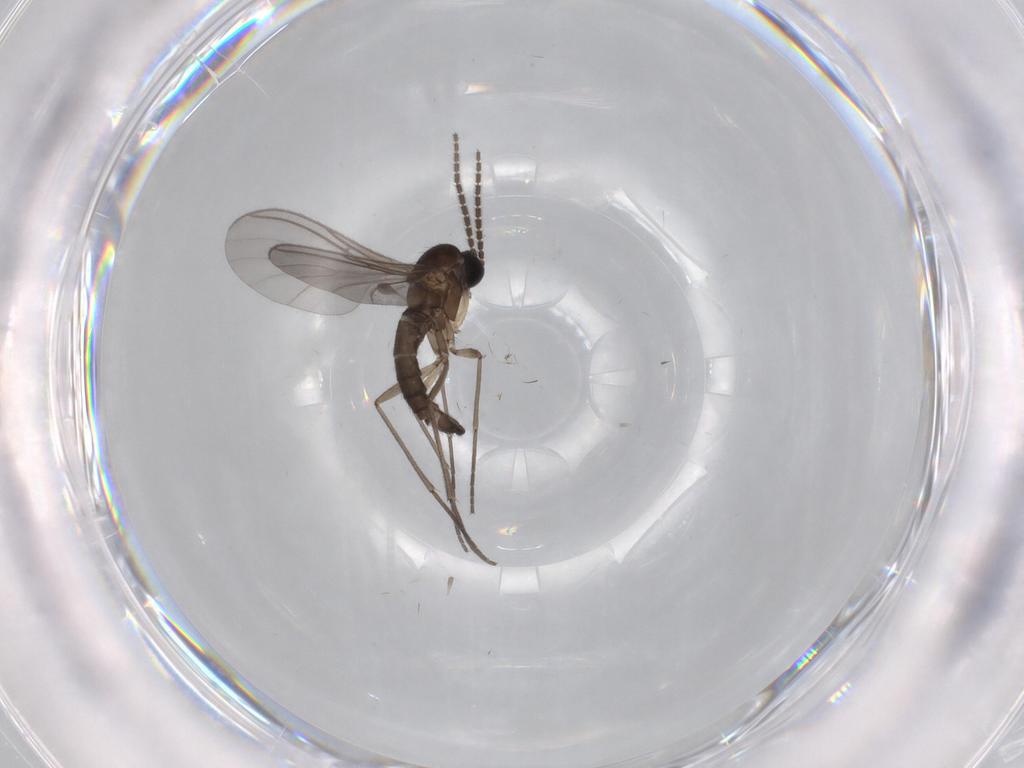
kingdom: Animalia
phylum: Arthropoda
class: Insecta
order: Diptera
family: Sciaridae
